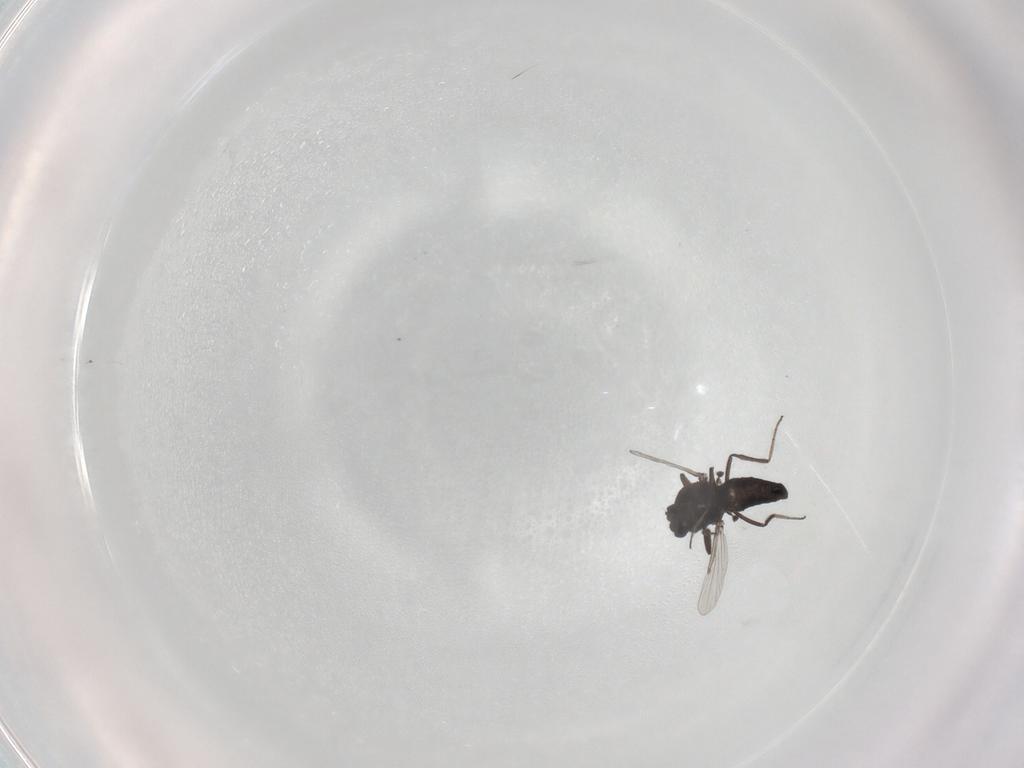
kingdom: Animalia
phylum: Arthropoda
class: Insecta
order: Diptera
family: Ceratopogonidae
